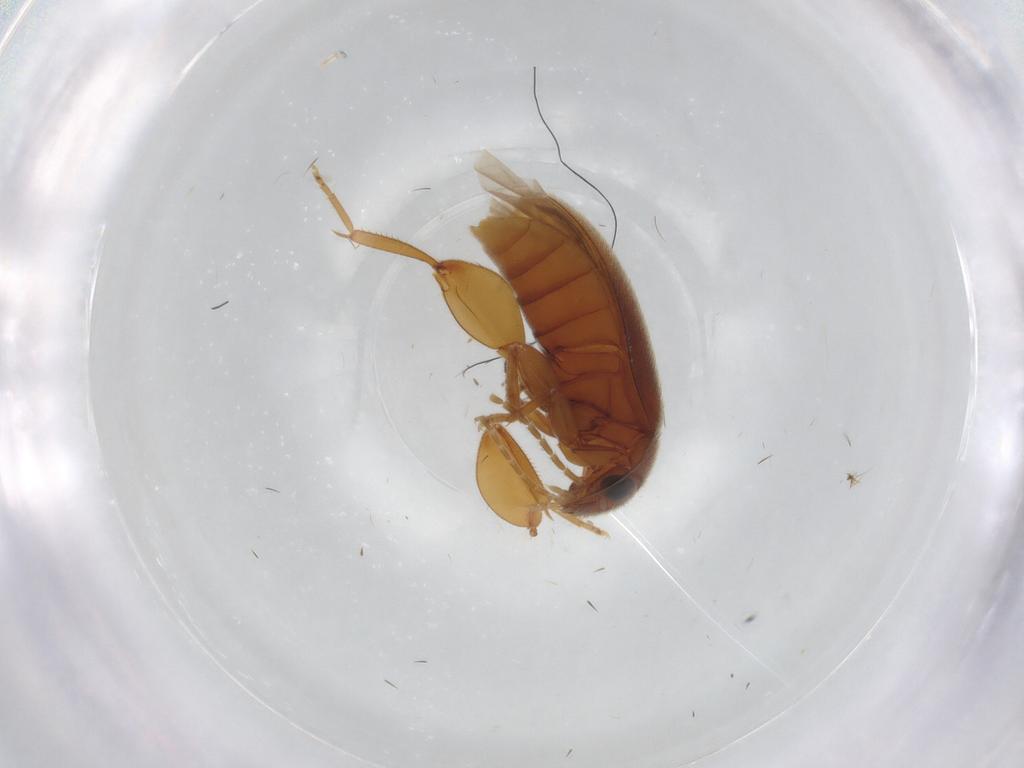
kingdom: Animalia
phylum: Arthropoda
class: Insecta
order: Coleoptera
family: Scirtidae
